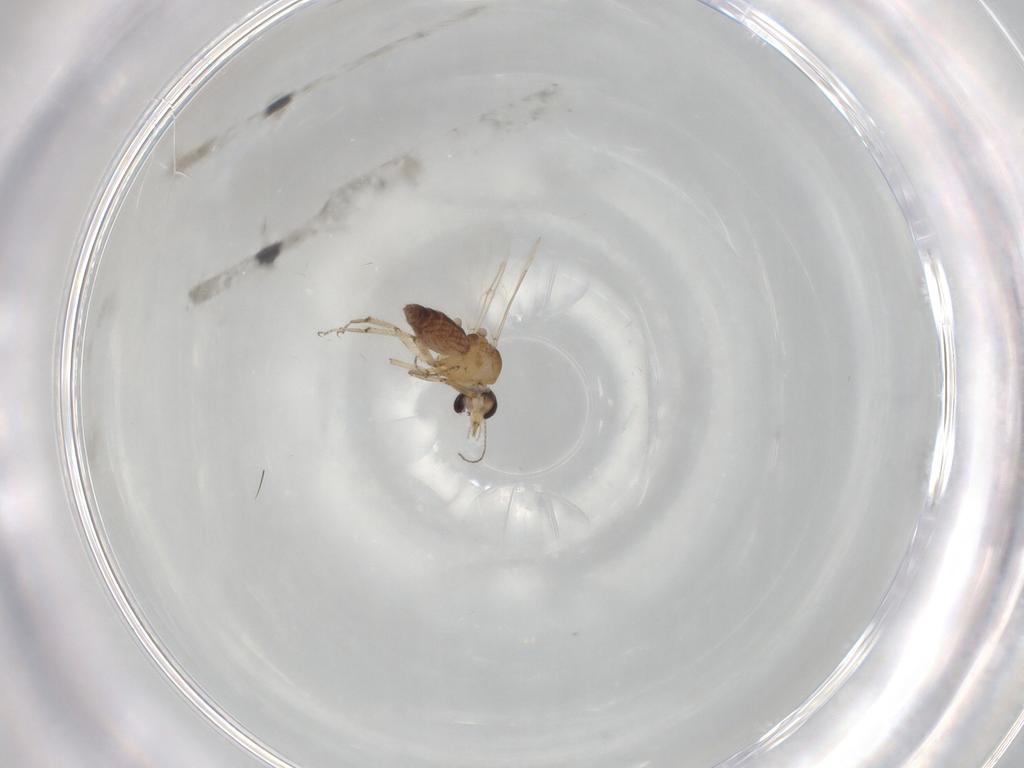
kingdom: Animalia
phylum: Arthropoda
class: Insecta
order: Diptera
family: Ceratopogonidae
